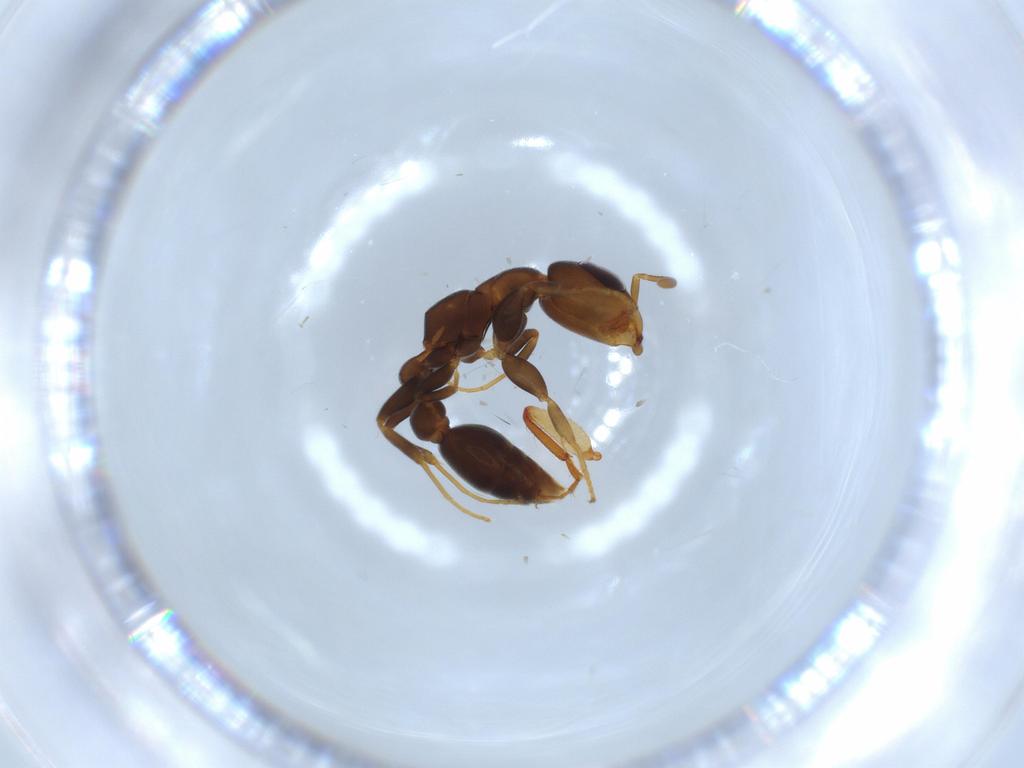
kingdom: Animalia
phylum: Arthropoda
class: Insecta
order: Hymenoptera
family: Formicidae
